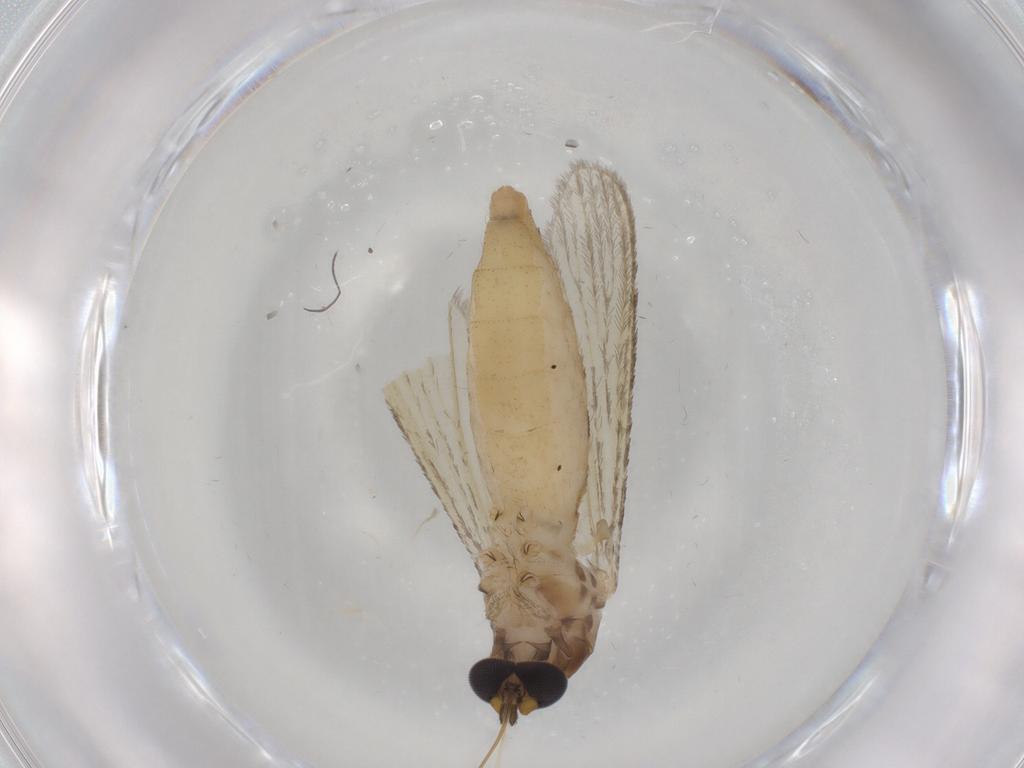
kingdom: Animalia
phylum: Arthropoda
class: Insecta
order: Diptera
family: Culicidae
